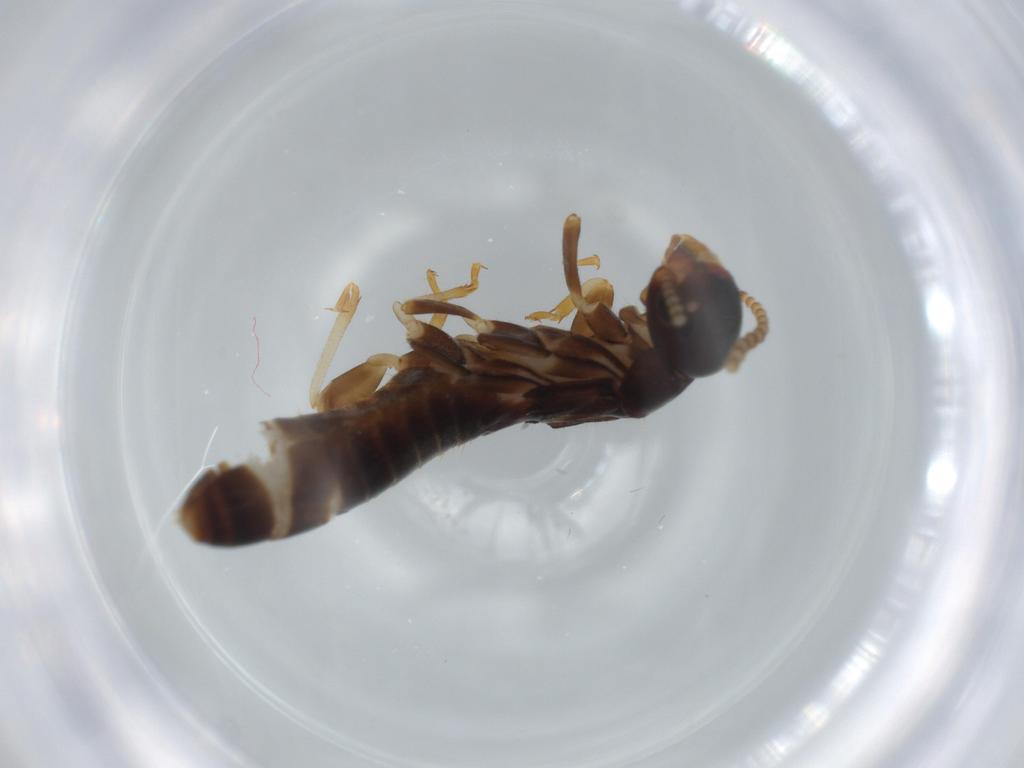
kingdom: Animalia
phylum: Arthropoda
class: Insecta
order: Blattodea
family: Kalotermitidae
